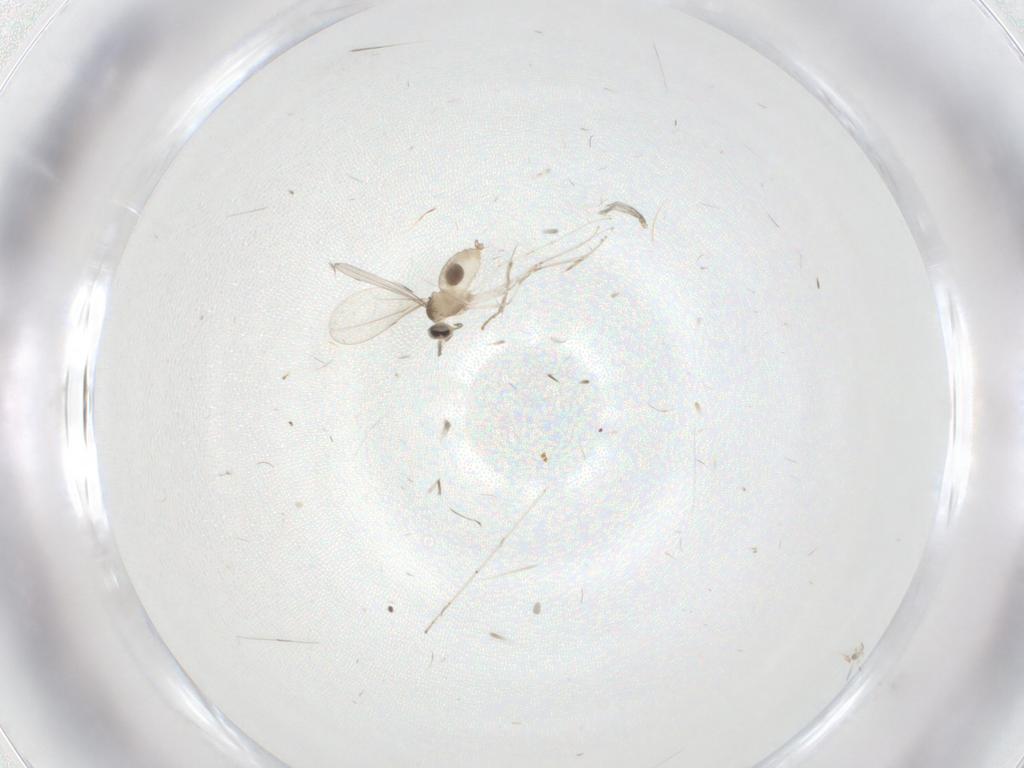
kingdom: Animalia
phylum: Arthropoda
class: Insecta
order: Diptera
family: Cecidomyiidae
